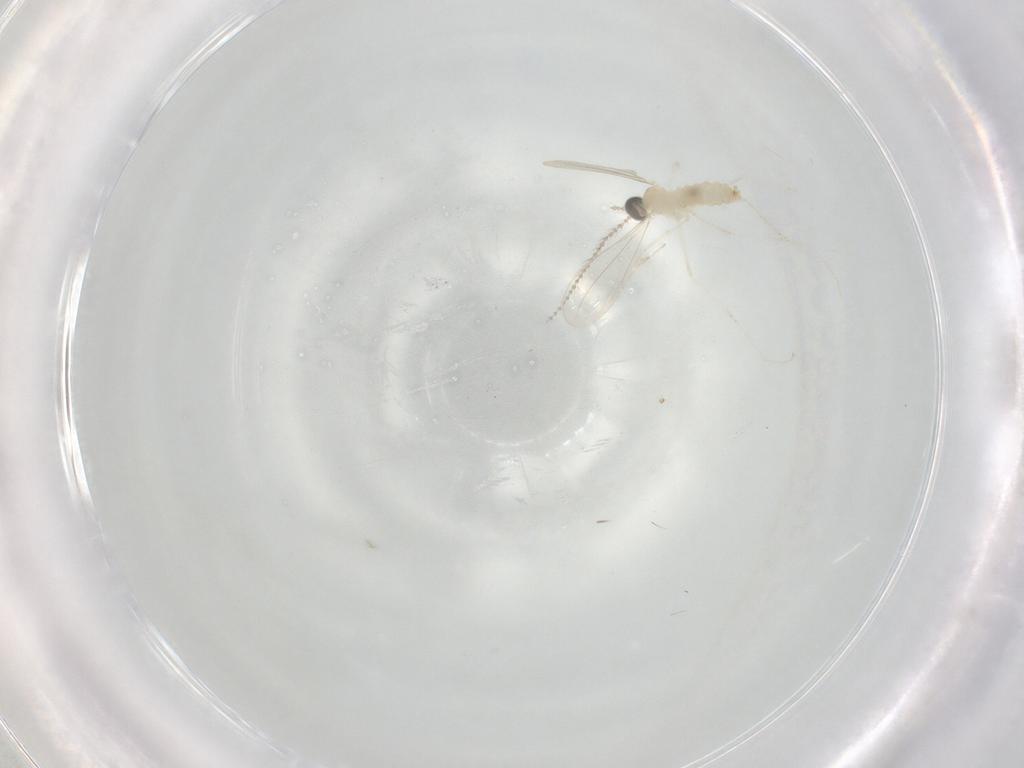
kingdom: Animalia
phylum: Arthropoda
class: Insecta
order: Diptera
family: Cecidomyiidae
